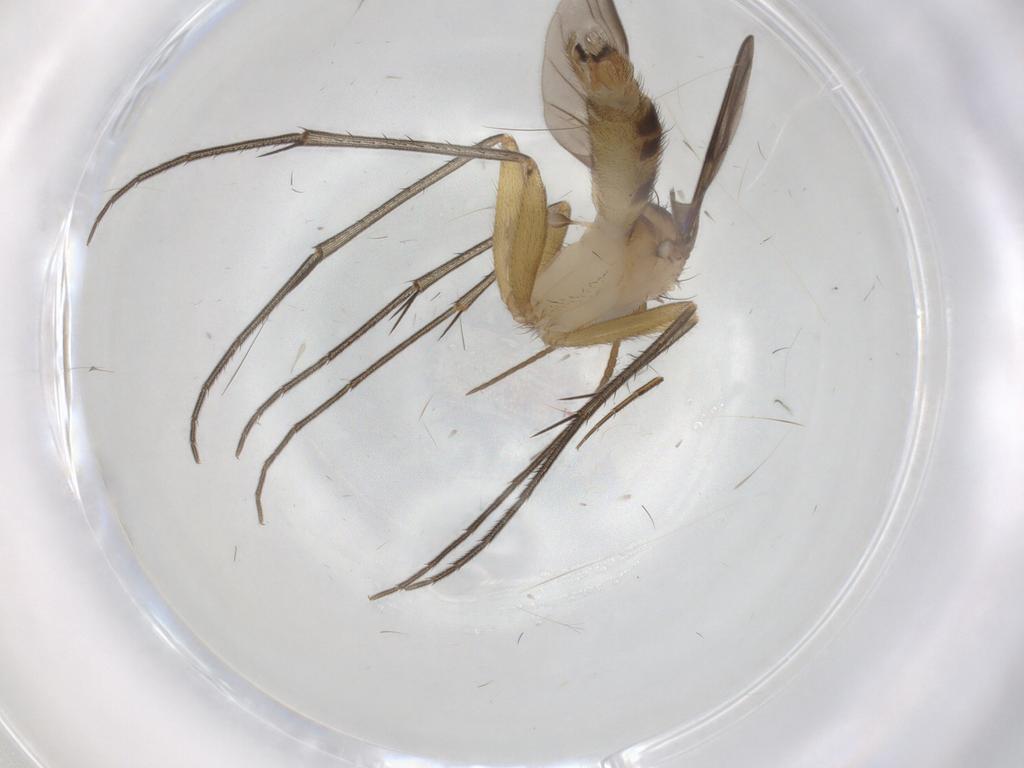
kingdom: Animalia
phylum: Arthropoda
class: Insecta
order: Diptera
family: Mycetophilidae
